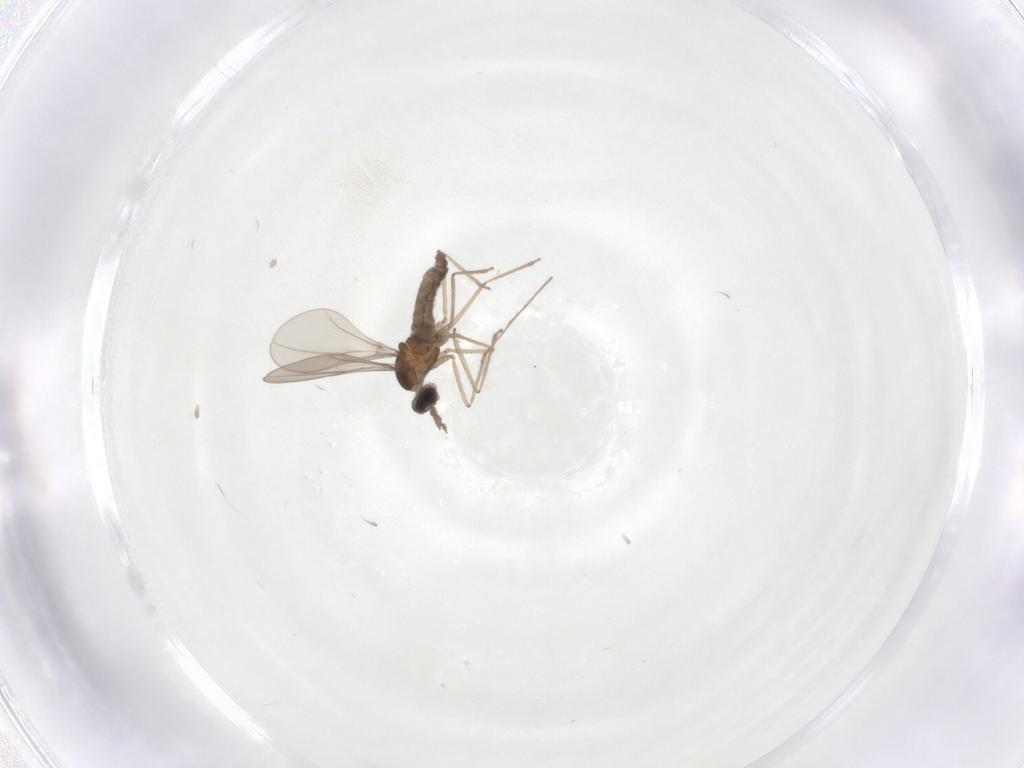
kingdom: Animalia
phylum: Arthropoda
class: Insecta
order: Diptera
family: Cecidomyiidae
